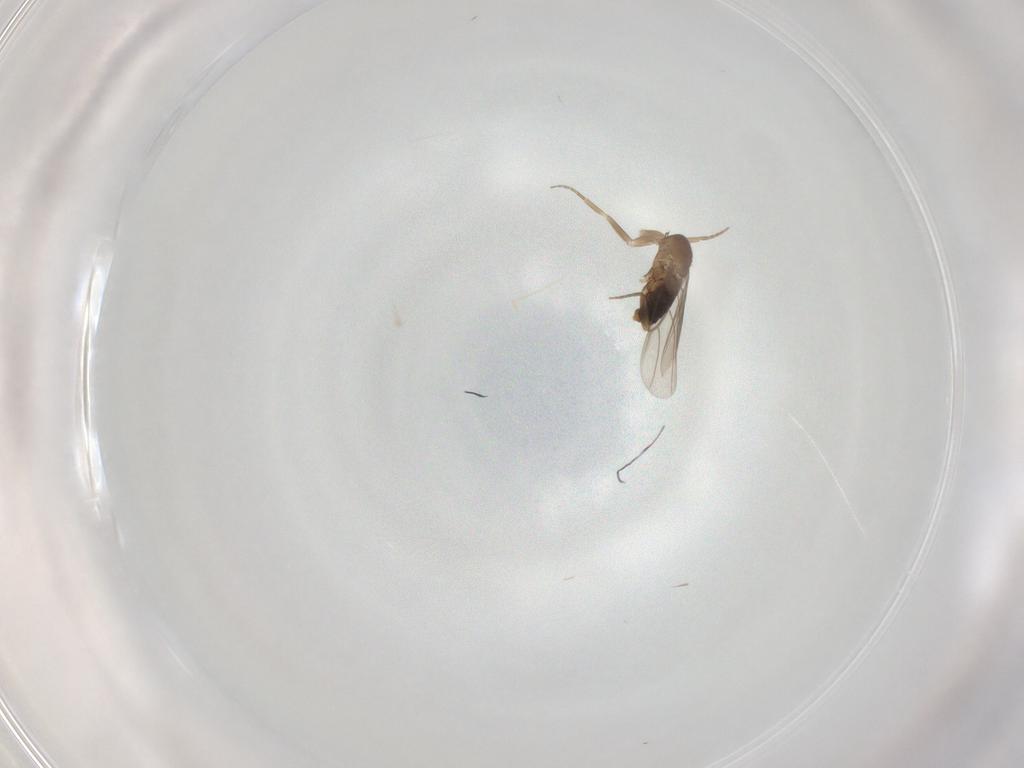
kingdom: Animalia
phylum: Arthropoda
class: Insecta
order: Diptera
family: Phoridae
